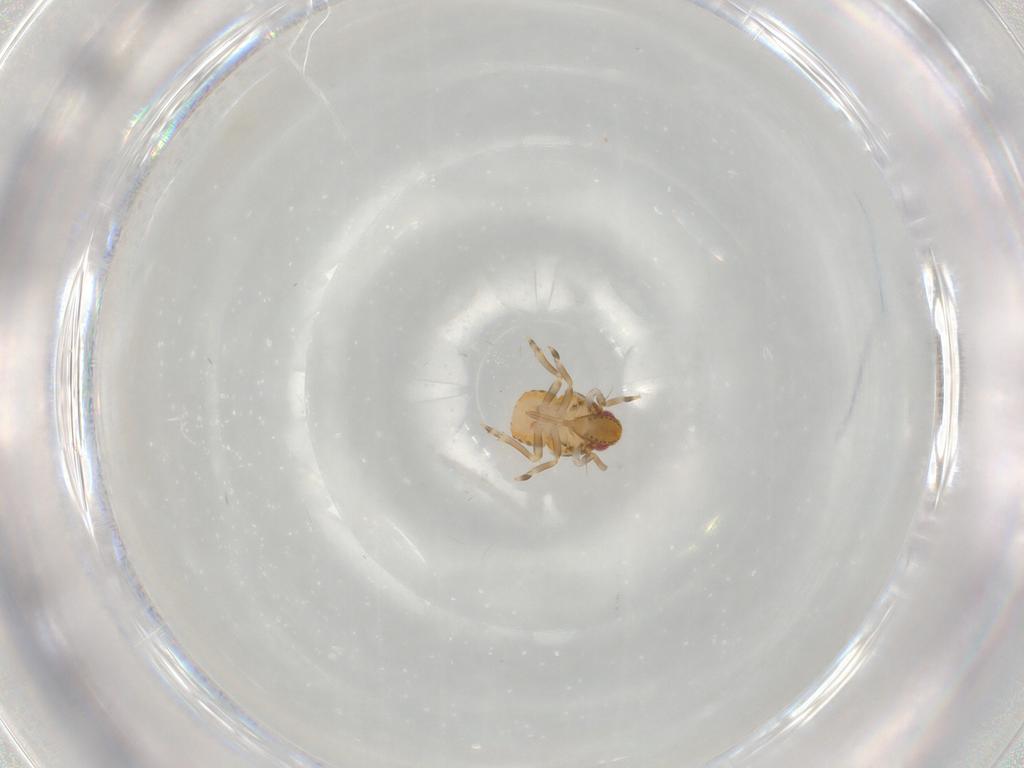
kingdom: Animalia
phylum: Arthropoda
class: Insecta
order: Hemiptera
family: Flatidae
